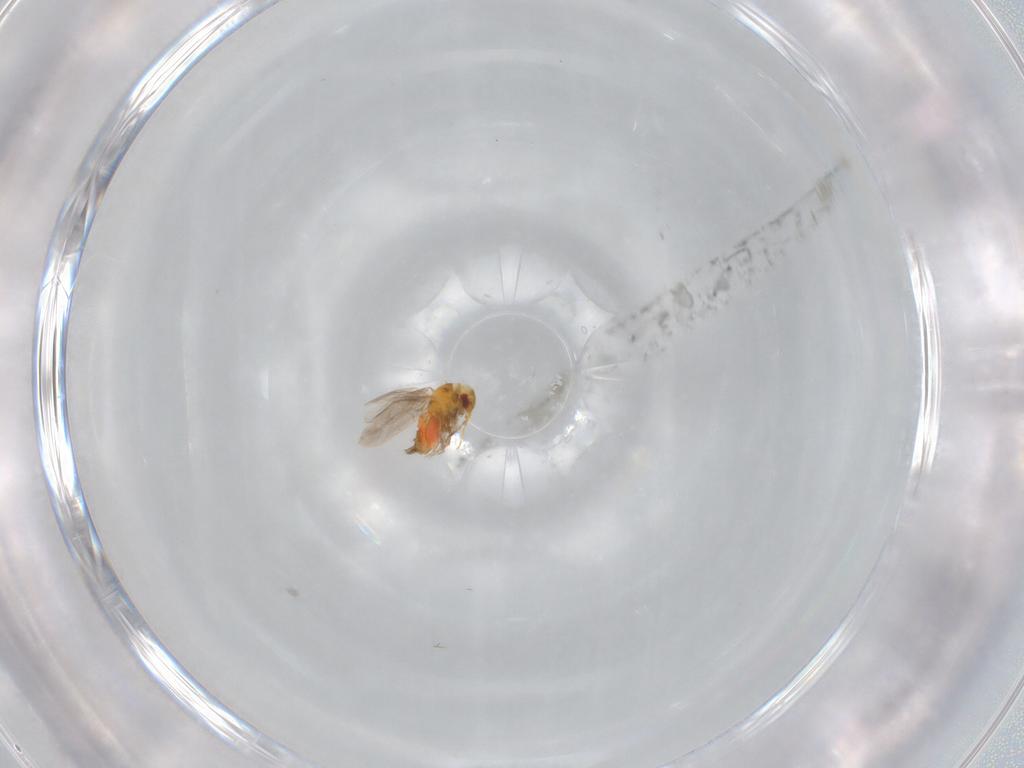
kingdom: Animalia
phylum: Arthropoda
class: Insecta
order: Hemiptera
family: Aleyrodidae
